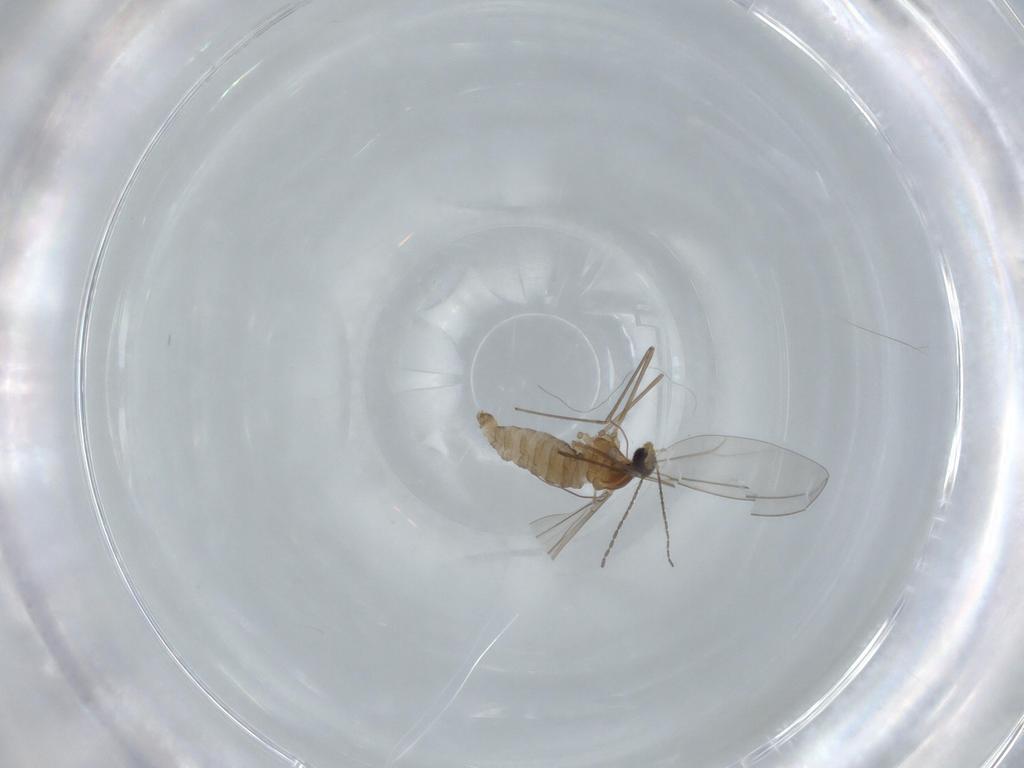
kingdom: Animalia
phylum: Arthropoda
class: Insecta
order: Diptera
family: Cecidomyiidae
